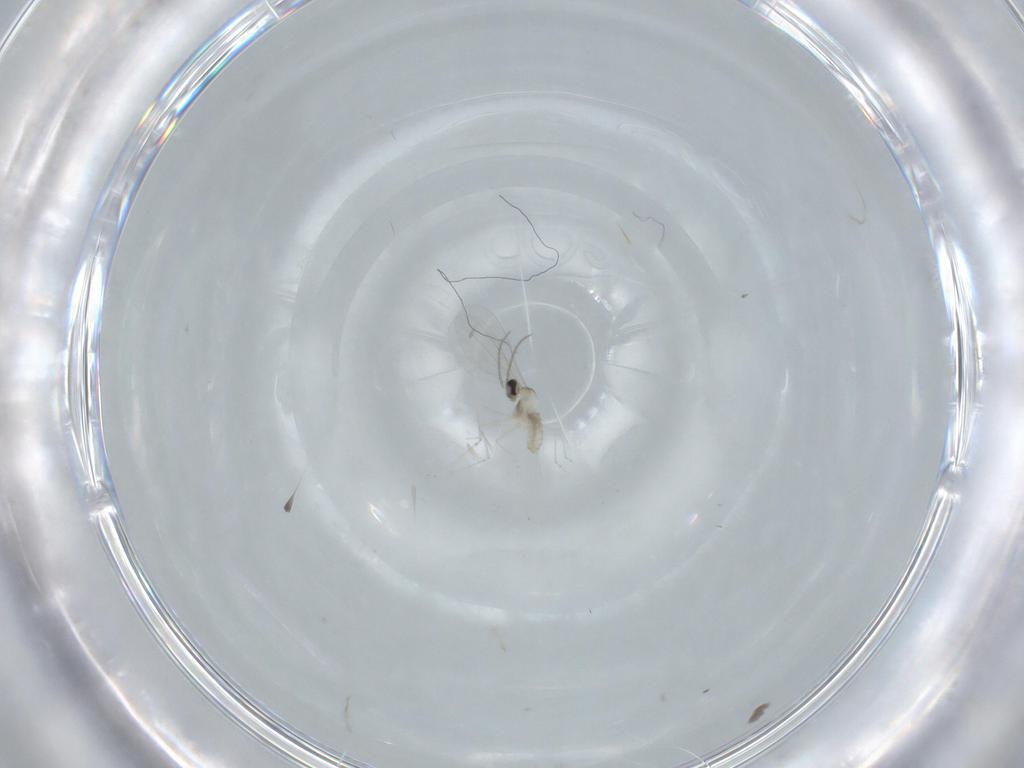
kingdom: Animalia
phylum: Arthropoda
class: Insecta
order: Diptera
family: Cecidomyiidae
